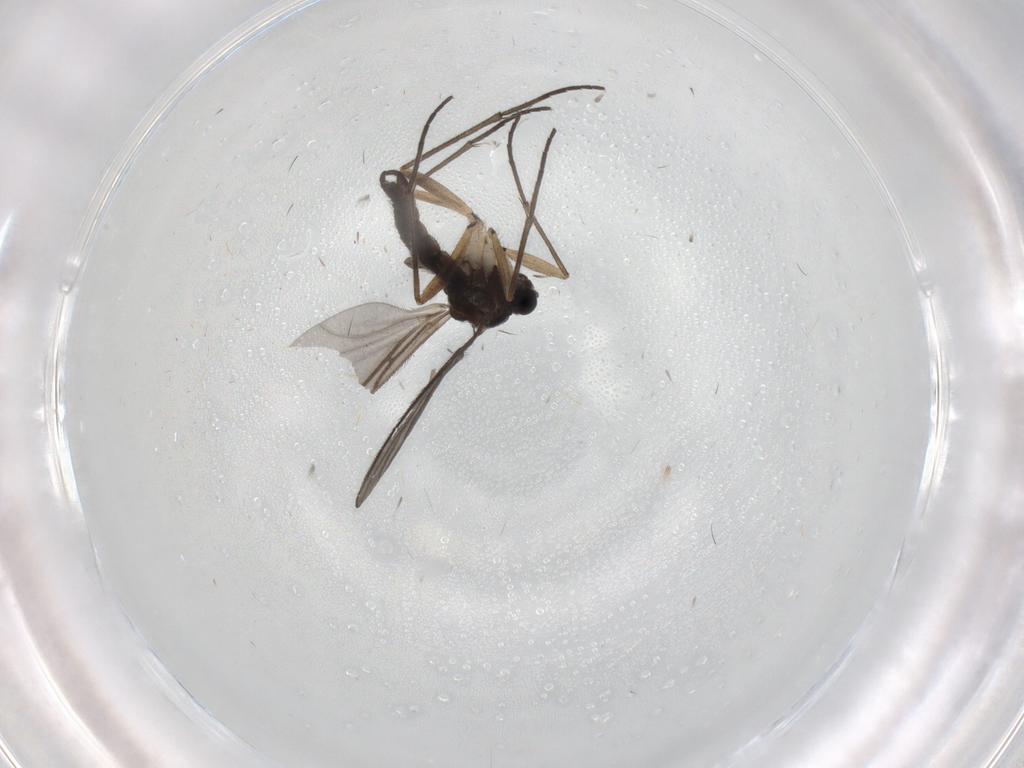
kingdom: Animalia
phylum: Arthropoda
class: Insecta
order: Diptera
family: Sciaridae
